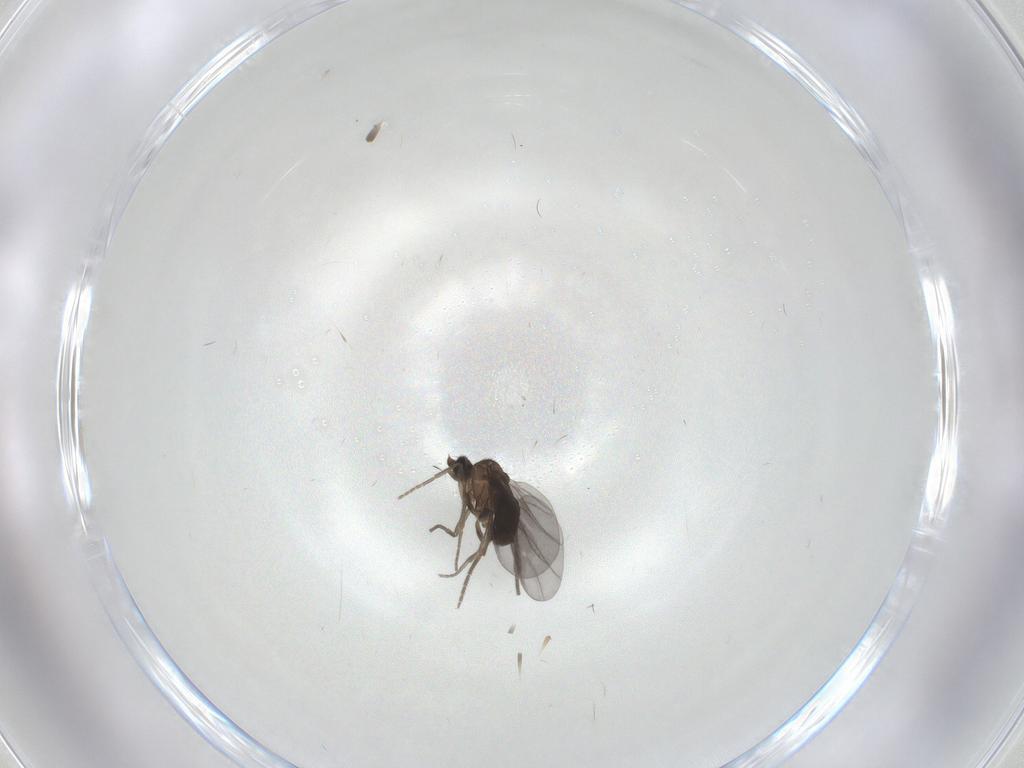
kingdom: Animalia
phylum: Arthropoda
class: Insecta
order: Diptera
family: Ceratopogonidae
